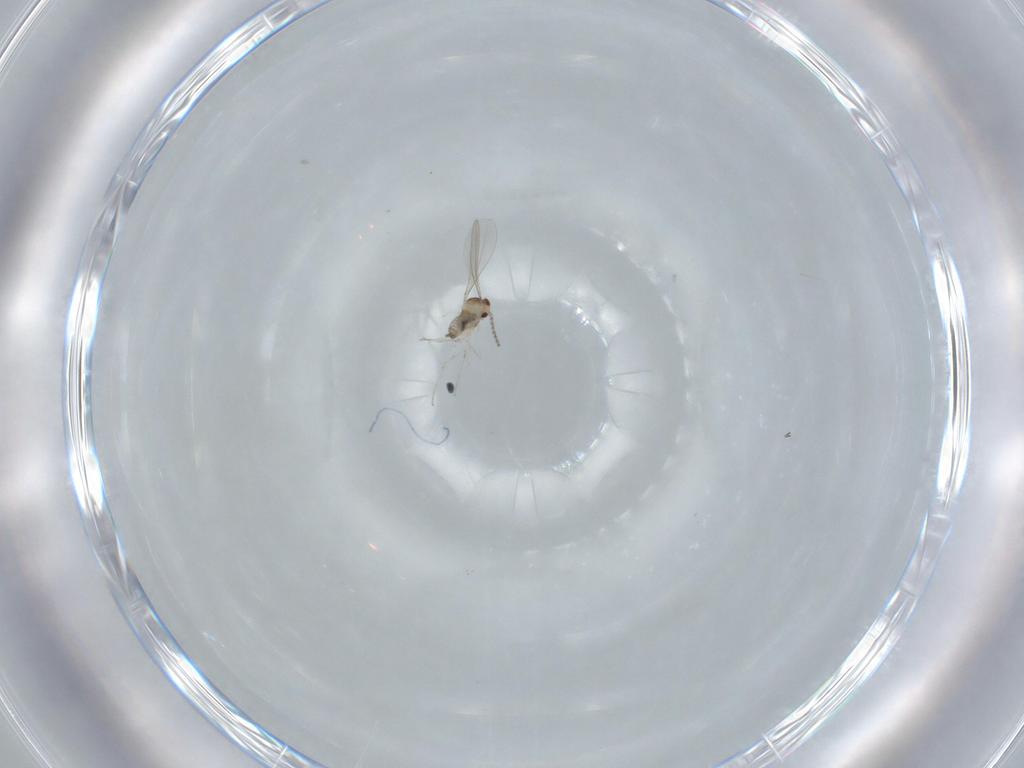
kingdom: Animalia
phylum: Arthropoda
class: Insecta
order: Diptera
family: Cecidomyiidae
